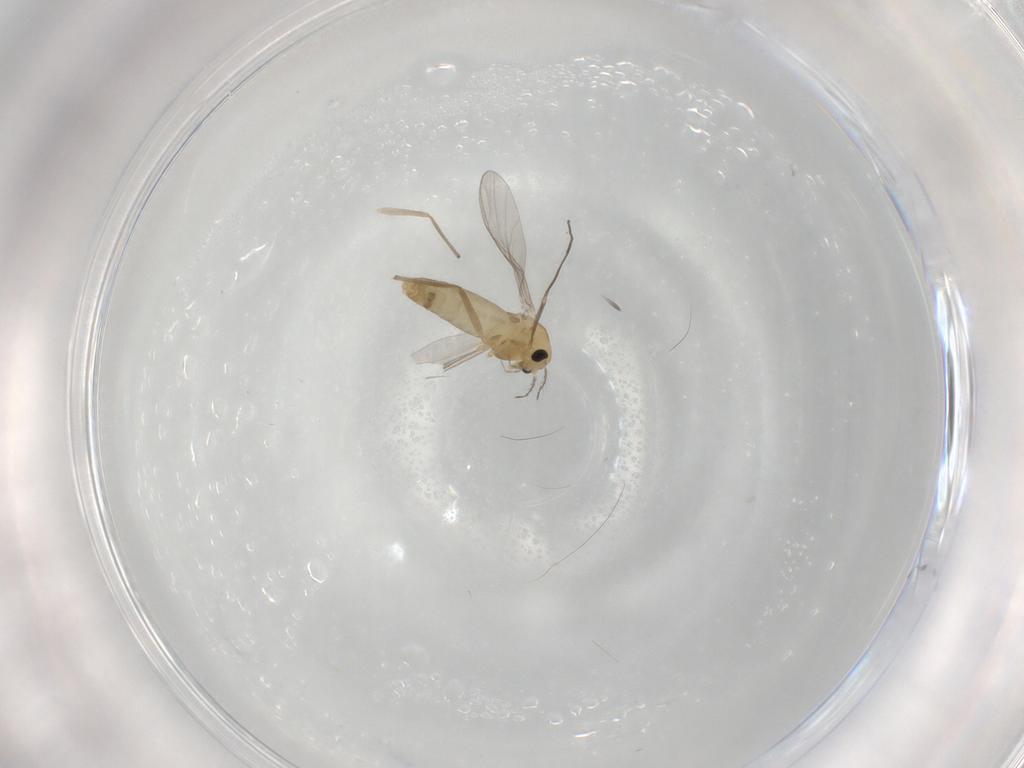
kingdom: Animalia
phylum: Arthropoda
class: Insecta
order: Diptera
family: Chironomidae
